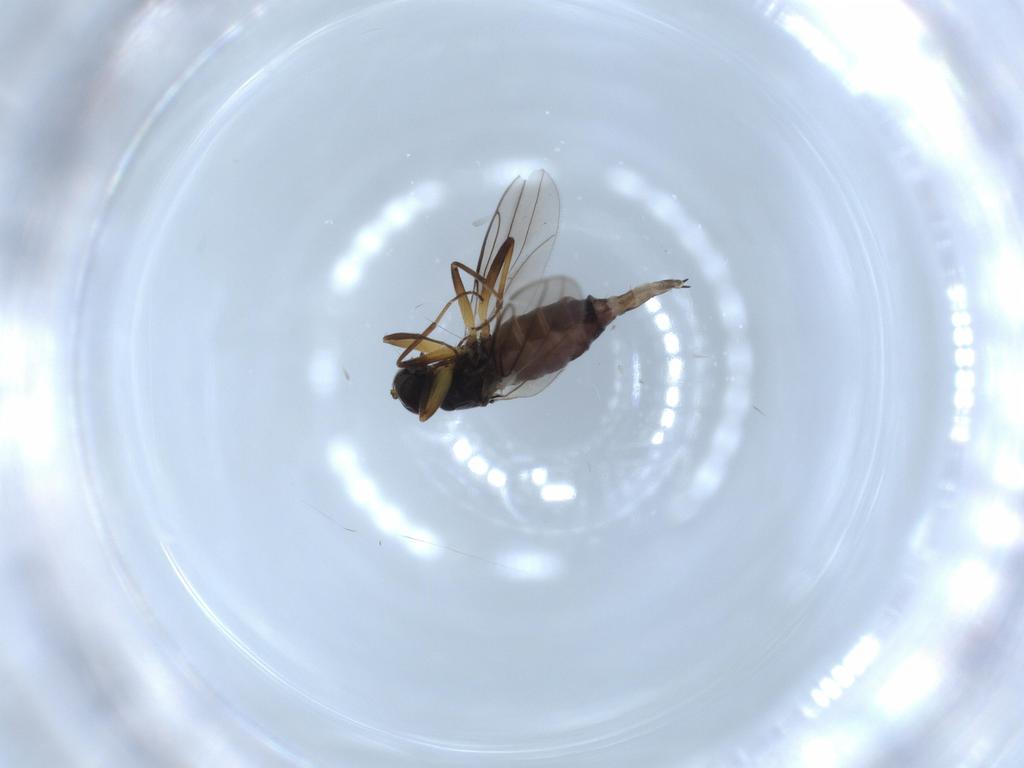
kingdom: Animalia
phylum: Arthropoda
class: Insecta
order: Diptera
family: Hybotidae
